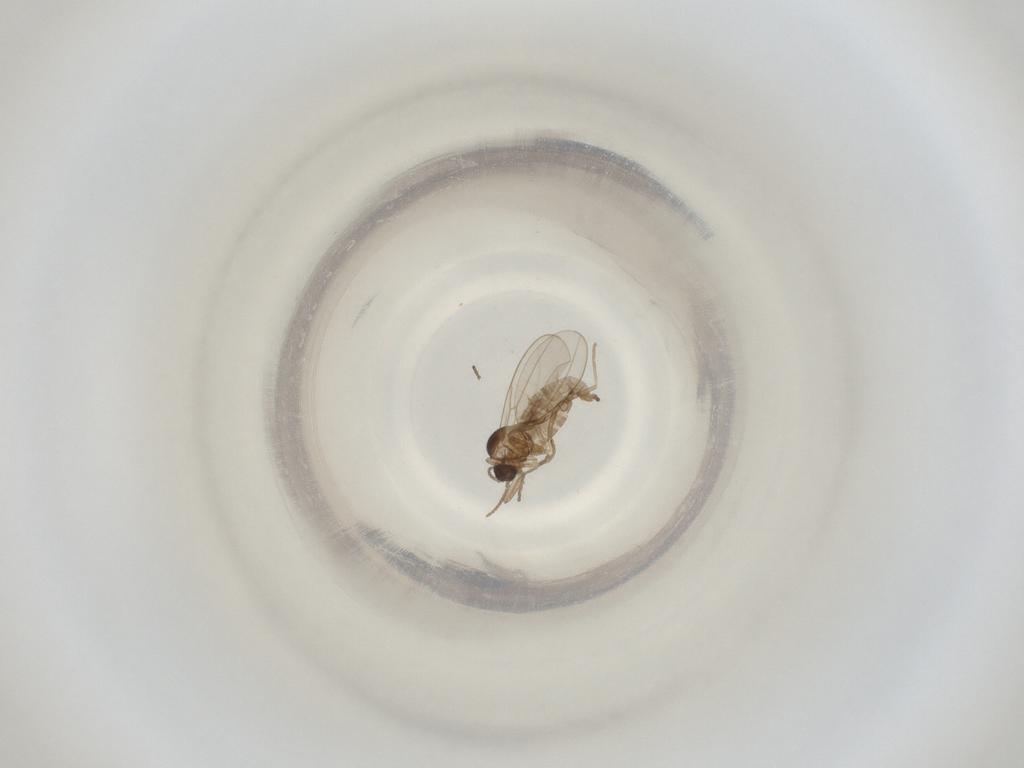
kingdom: Animalia
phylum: Arthropoda
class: Insecta
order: Diptera
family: Cecidomyiidae
